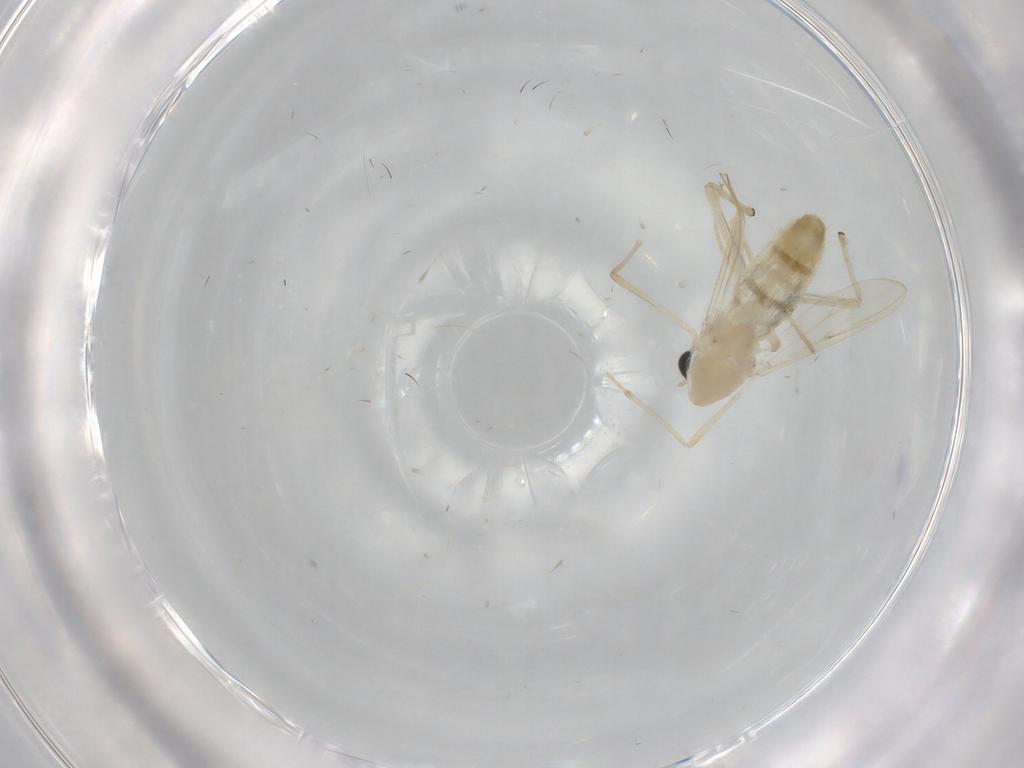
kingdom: Animalia
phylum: Arthropoda
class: Insecta
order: Diptera
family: Chironomidae
